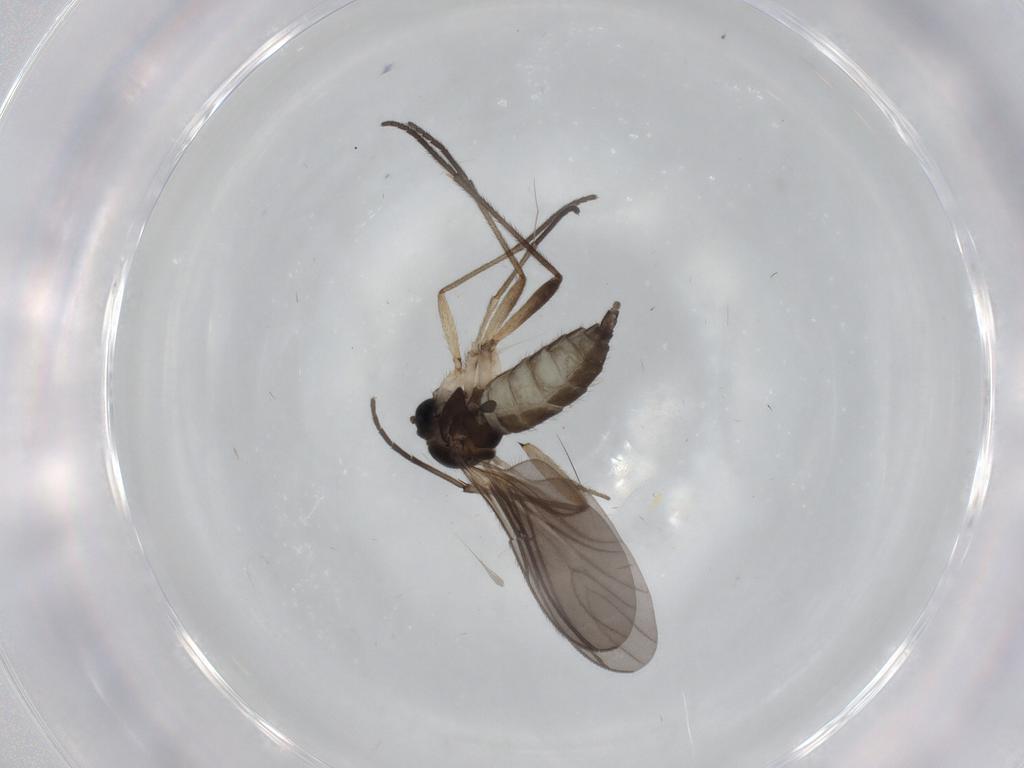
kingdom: Animalia
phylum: Arthropoda
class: Insecta
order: Diptera
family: Sciaridae
